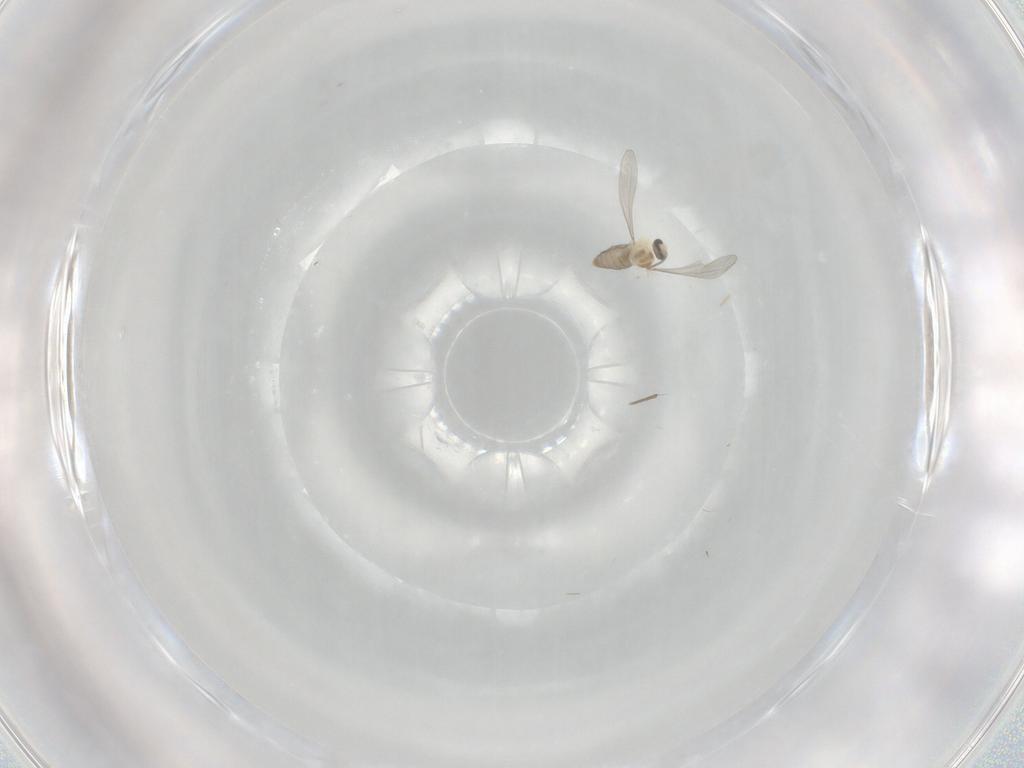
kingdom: Animalia
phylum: Arthropoda
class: Insecta
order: Diptera
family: Cecidomyiidae
